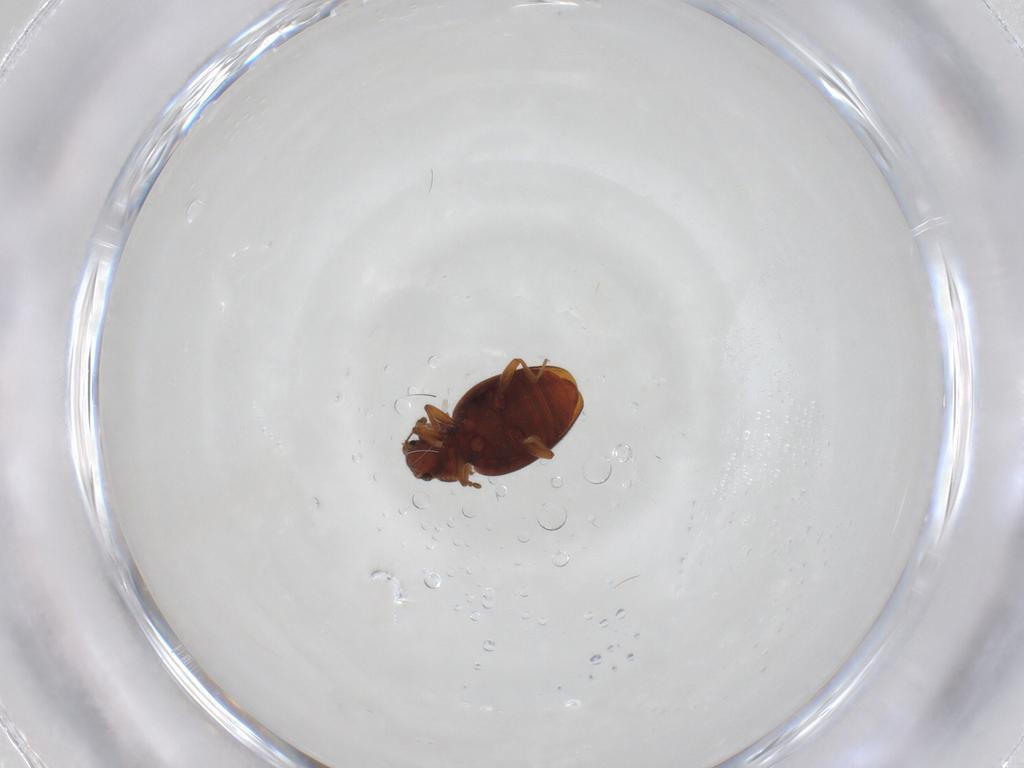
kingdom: Animalia
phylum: Arthropoda
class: Insecta
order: Coleoptera
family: Latridiidae
